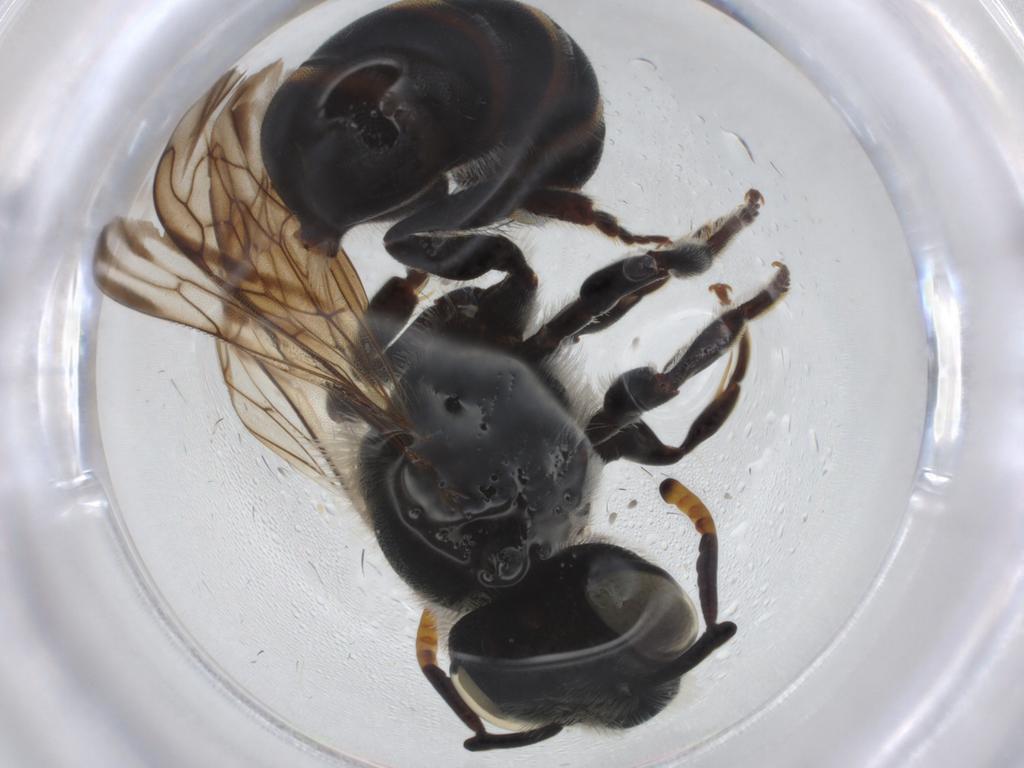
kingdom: Animalia
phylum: Arthropoda
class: Insecta
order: Hymenoptera
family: Megachilidae
